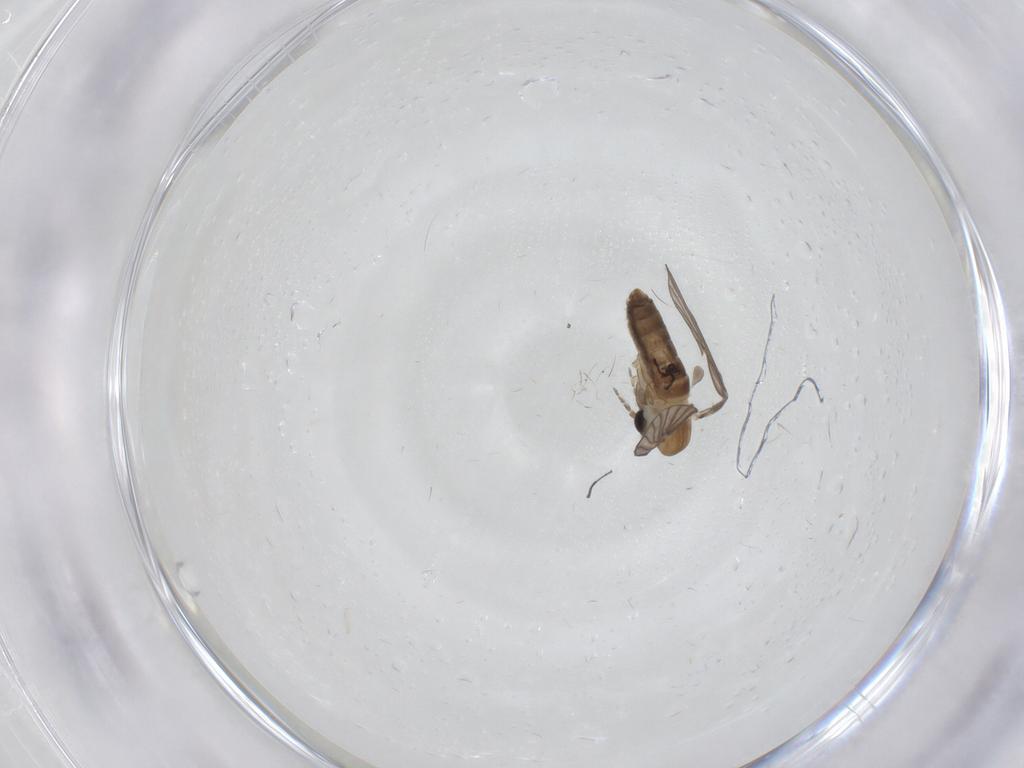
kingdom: Animalia
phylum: Arthropoda
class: Insecta
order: Diptera
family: Psychodidae
